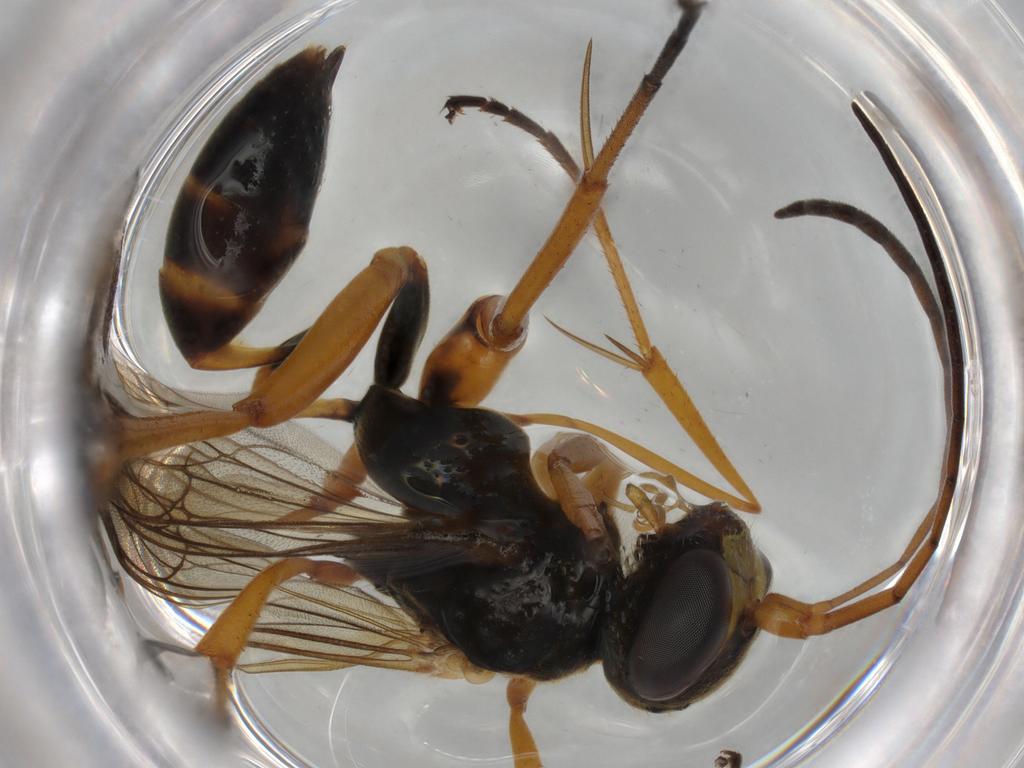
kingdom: Animalia
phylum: Arthropoda
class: Insecta
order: Hymenoptera
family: Pompilidae
